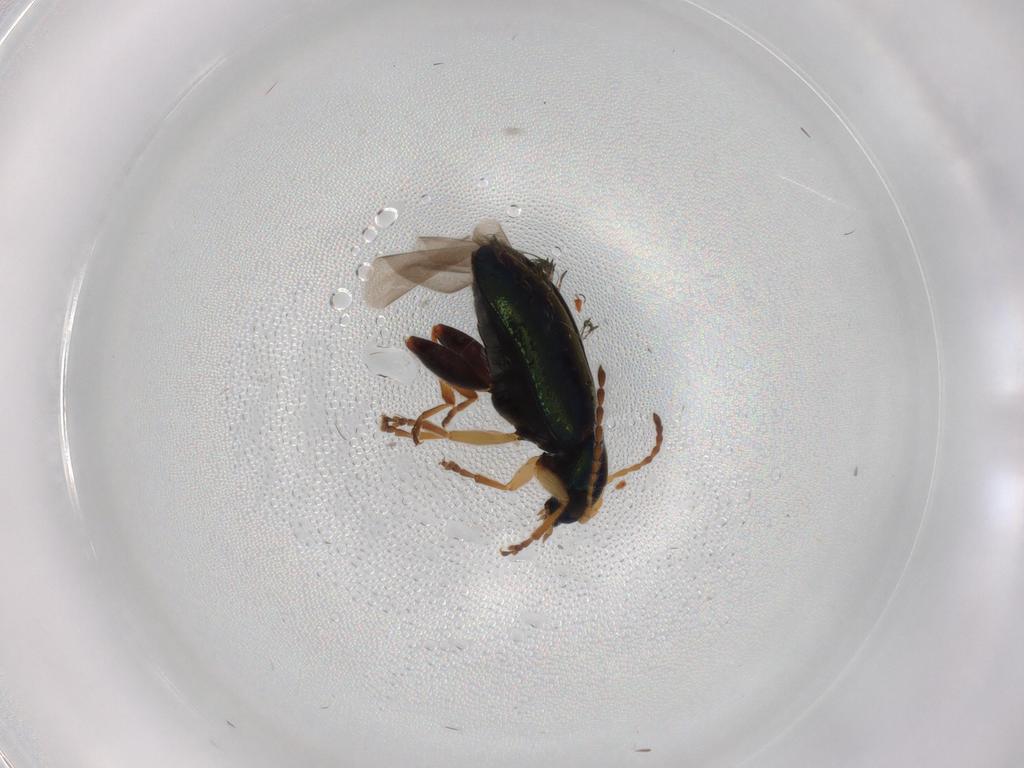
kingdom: Animalia
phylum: Arthropoda
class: Insecta
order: Coleoptera
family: Chrysomelidae
